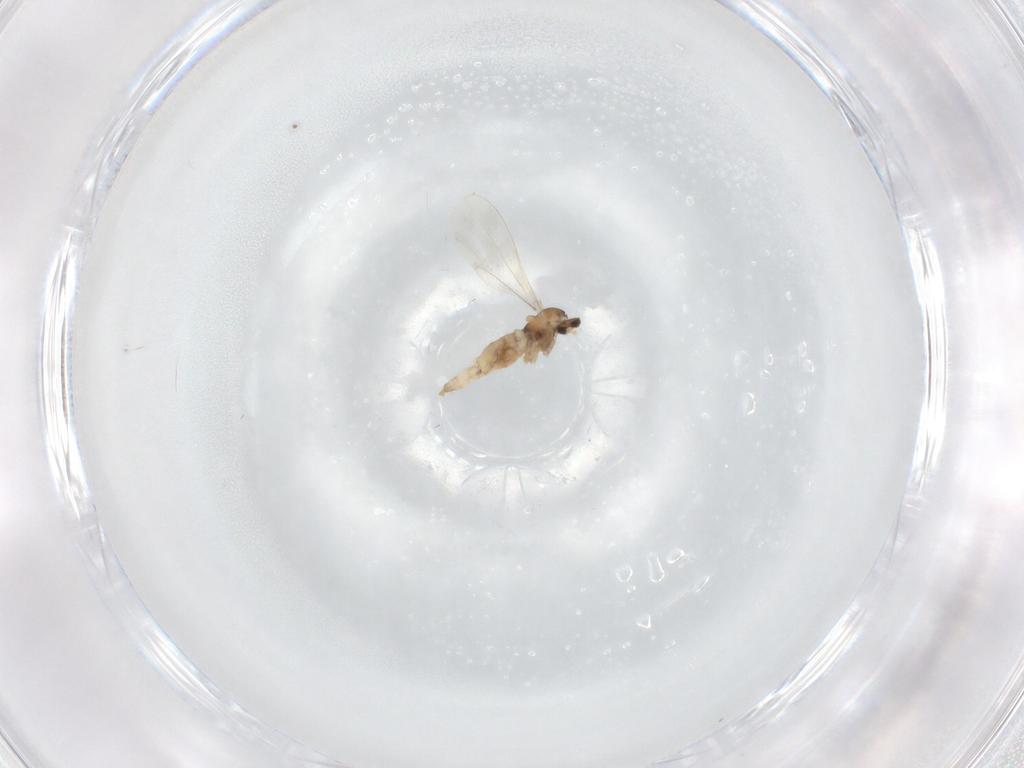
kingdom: Animalia
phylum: Arthropoda
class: Insecta
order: Diptera
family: Cecidomyiidae
